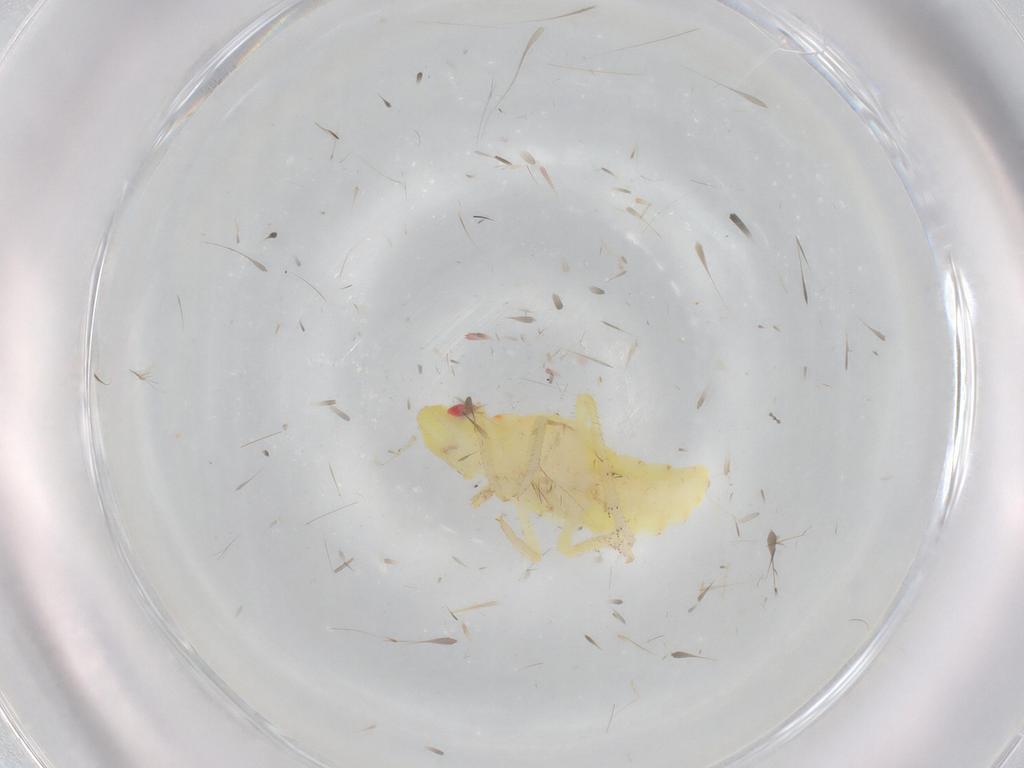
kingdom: Animalia
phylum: Arthropoda
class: Insecta
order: Hemiptera
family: Tropiduchidae
